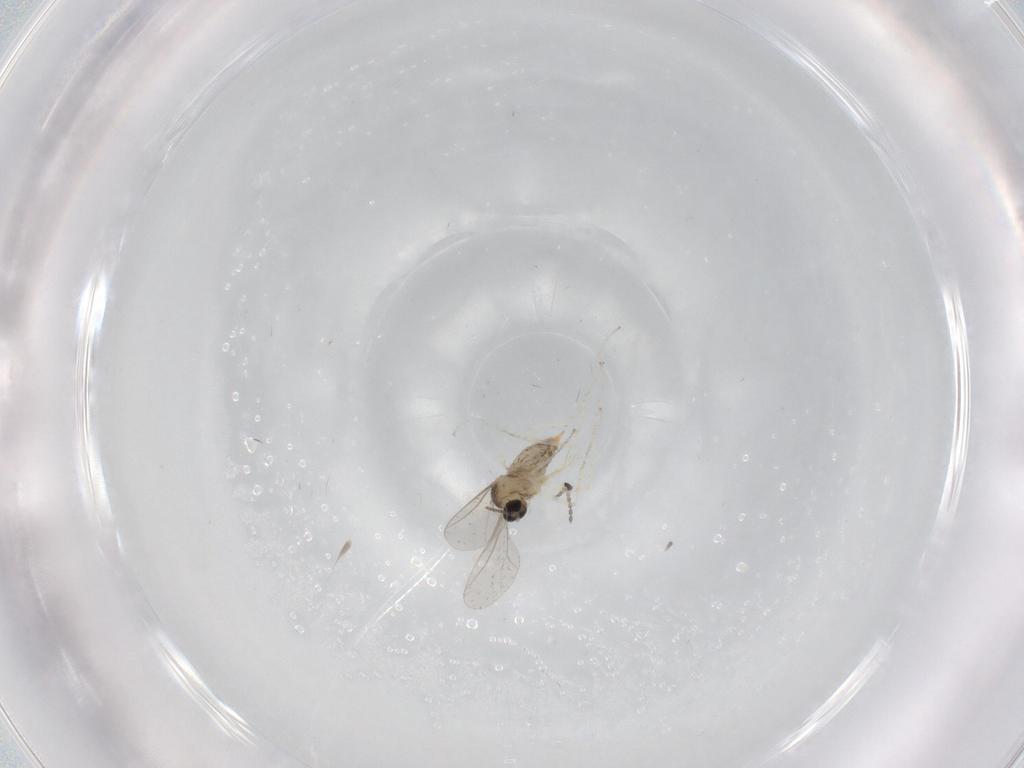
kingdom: Animalia
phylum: Arthropoda
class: Insecta
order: Diptera
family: Cecidomyiidae
